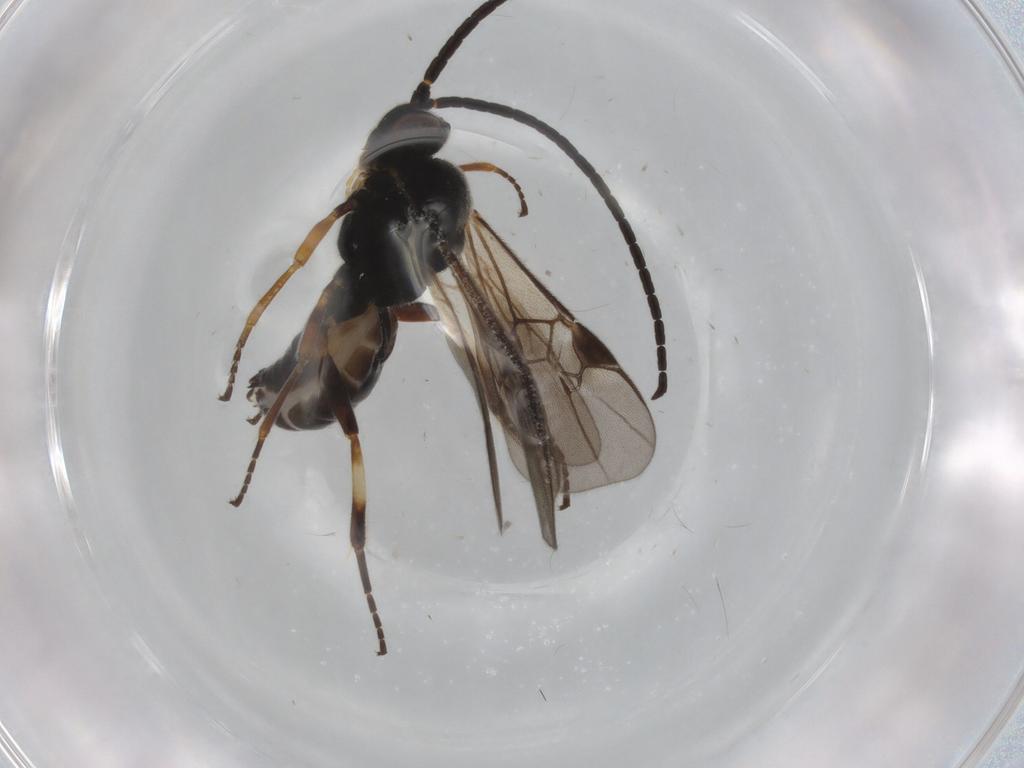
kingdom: Animalia
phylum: Arthropoda
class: Insecta
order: Hymenoptera
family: Braconidae
